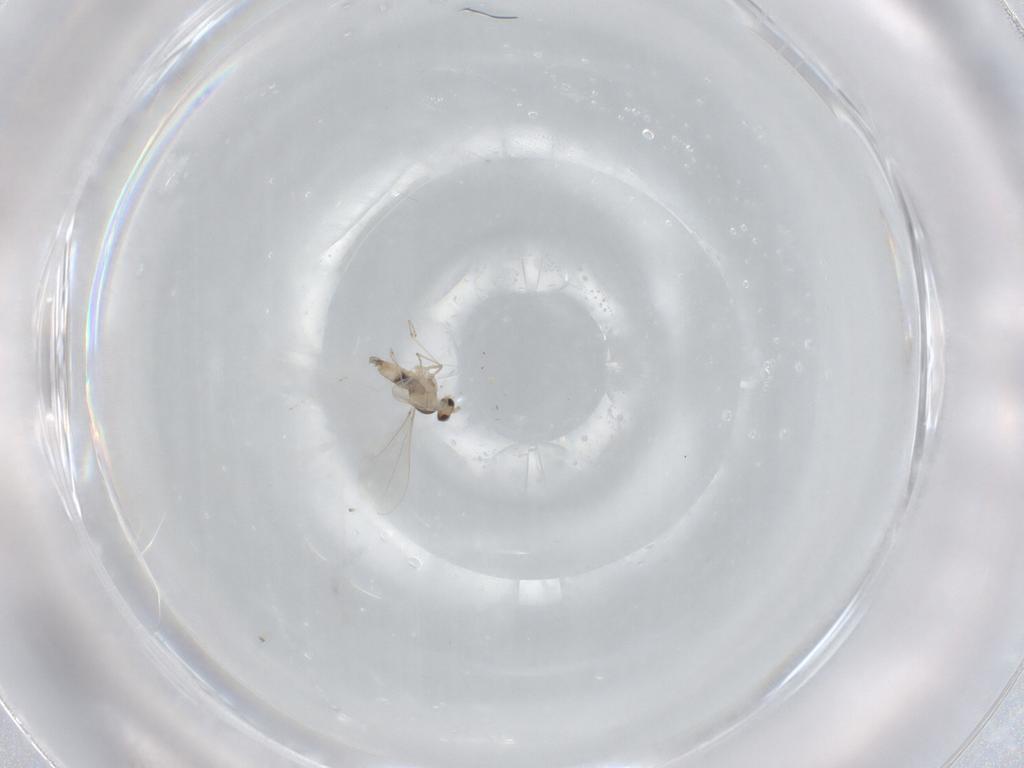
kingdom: Animalia
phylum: Arthropoda
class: Insecta
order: Diptera
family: Cecidomyiidae
